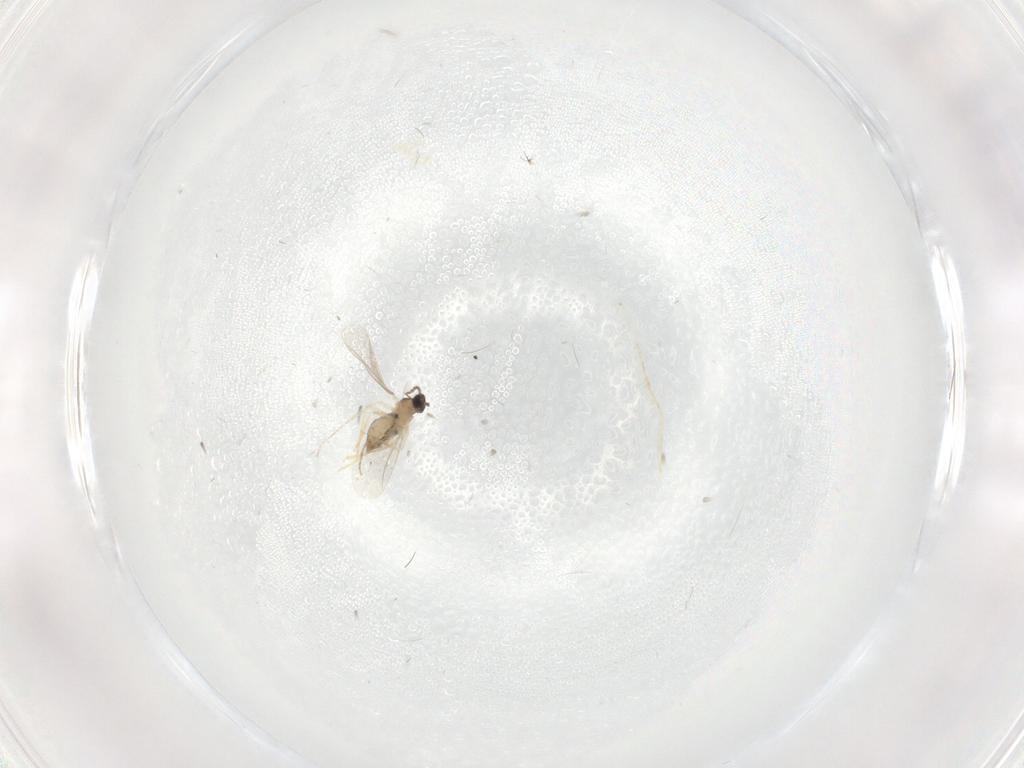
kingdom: Animalia
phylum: Arthropoda
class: Insecta
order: Diptera
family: Cecidomyiidae
